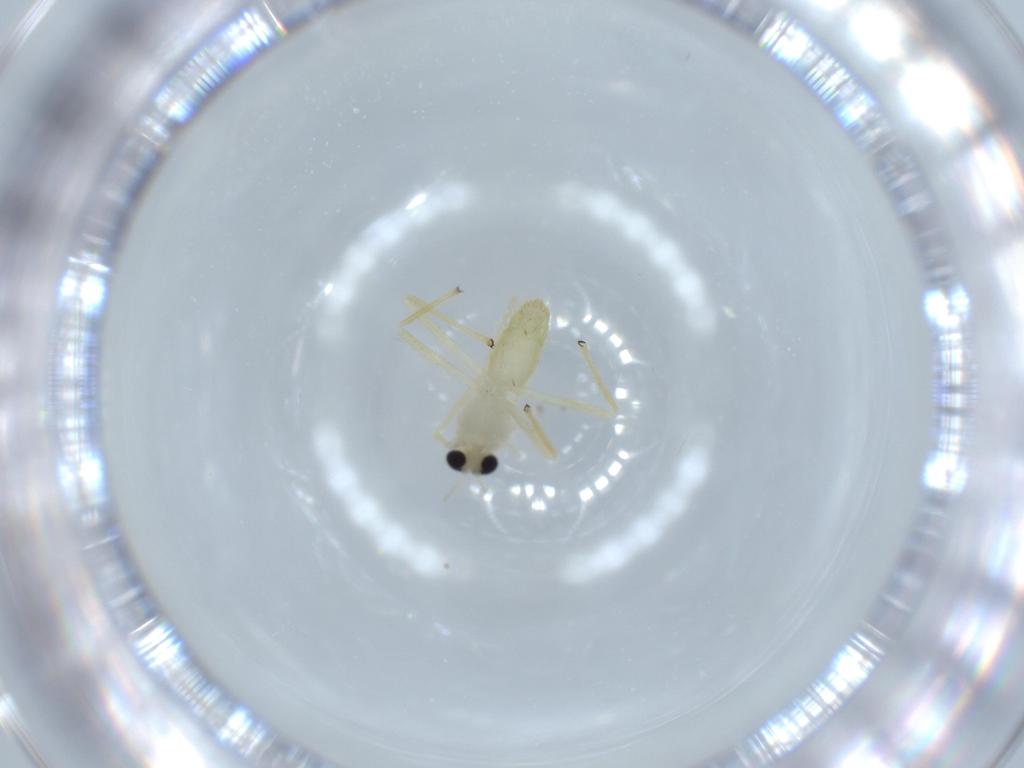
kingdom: Animalia
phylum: Arthropoda
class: Insecta
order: Diptera
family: Chironomidae
